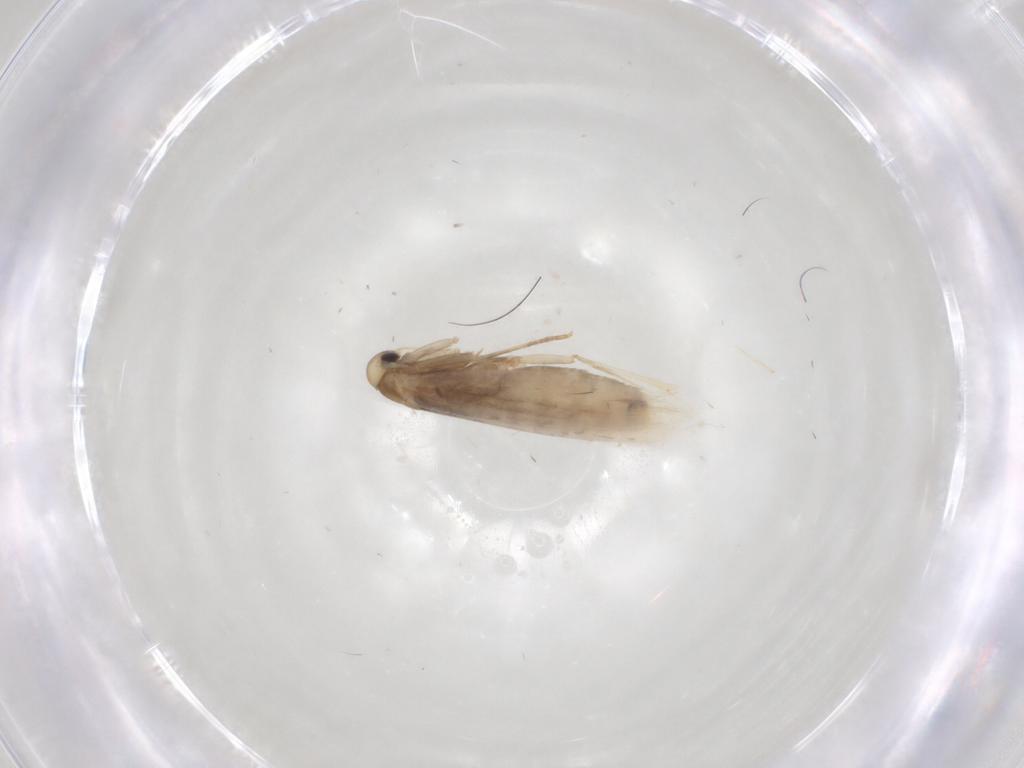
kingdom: Animalia
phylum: Arthropoda
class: Insecta
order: Lepidoptera
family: Gracillariidae
